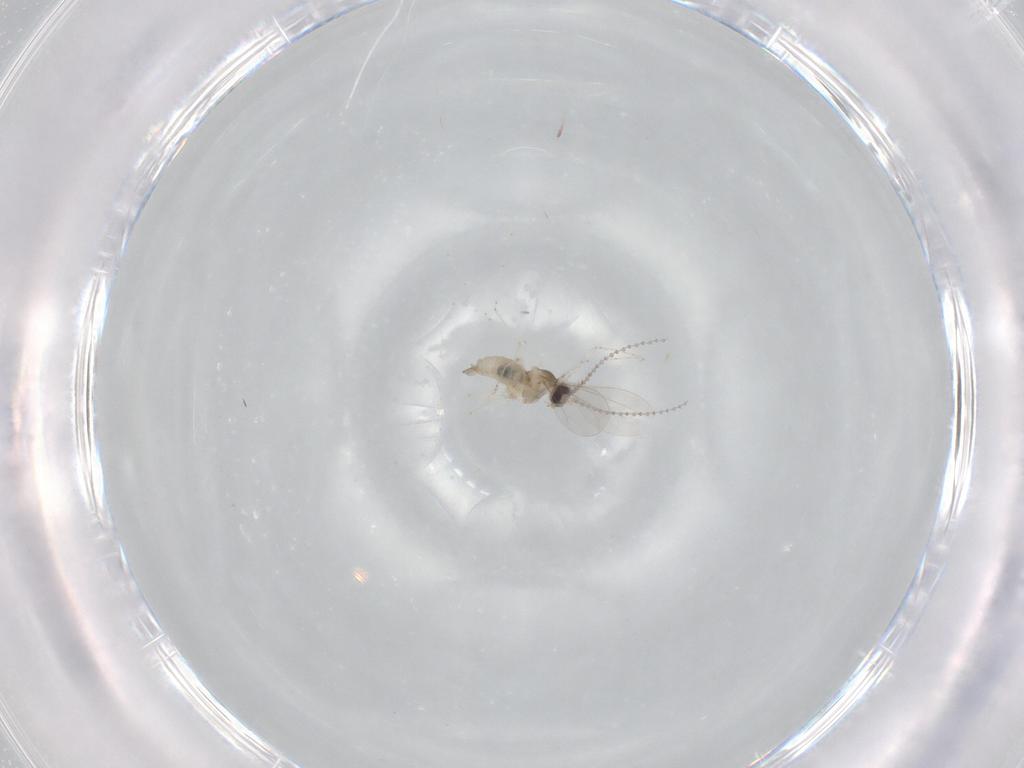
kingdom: Animalia
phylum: Arthropoda
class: Insecta
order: Diptera
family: Cecidomyiidae
